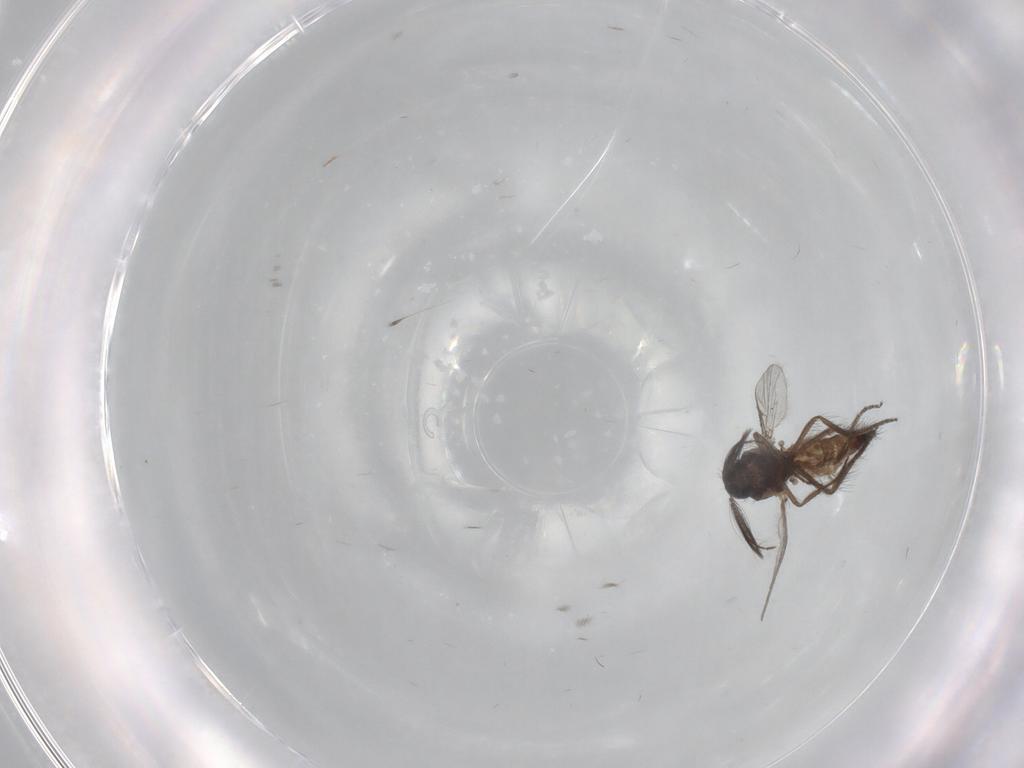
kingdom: Animalia
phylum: Arthropoda
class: Insecta
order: Diptera
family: Ceratopogonidae
